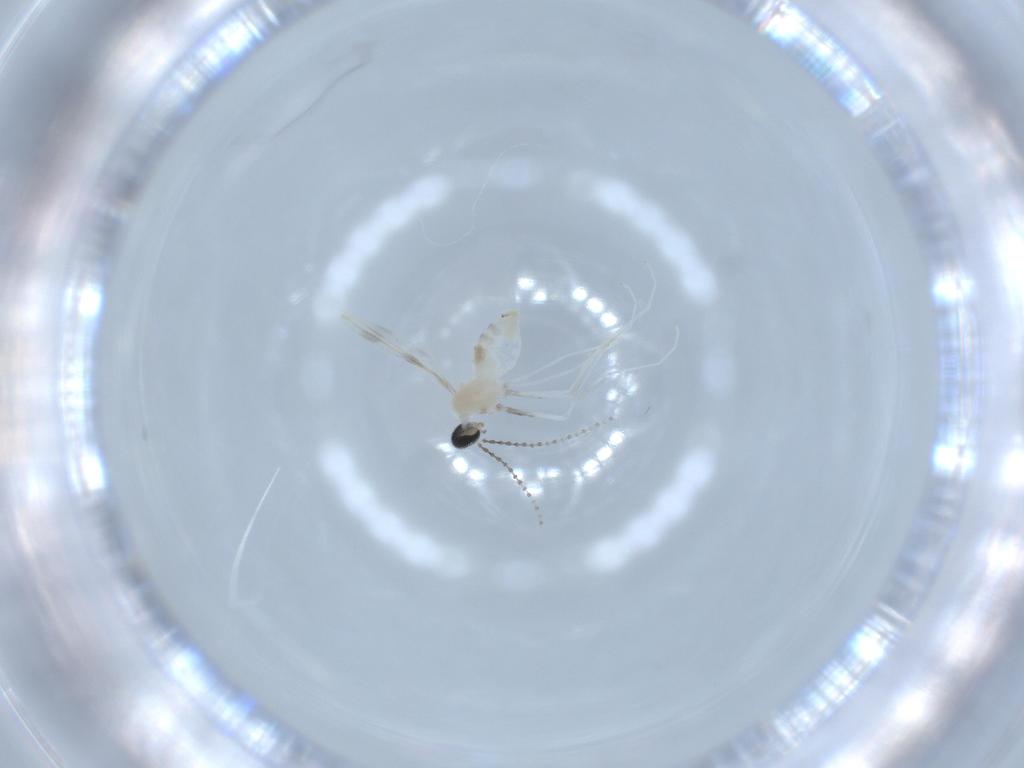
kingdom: Animalia
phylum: Arthropoda
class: Insecta
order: Diptera
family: Cecidomyiidae
